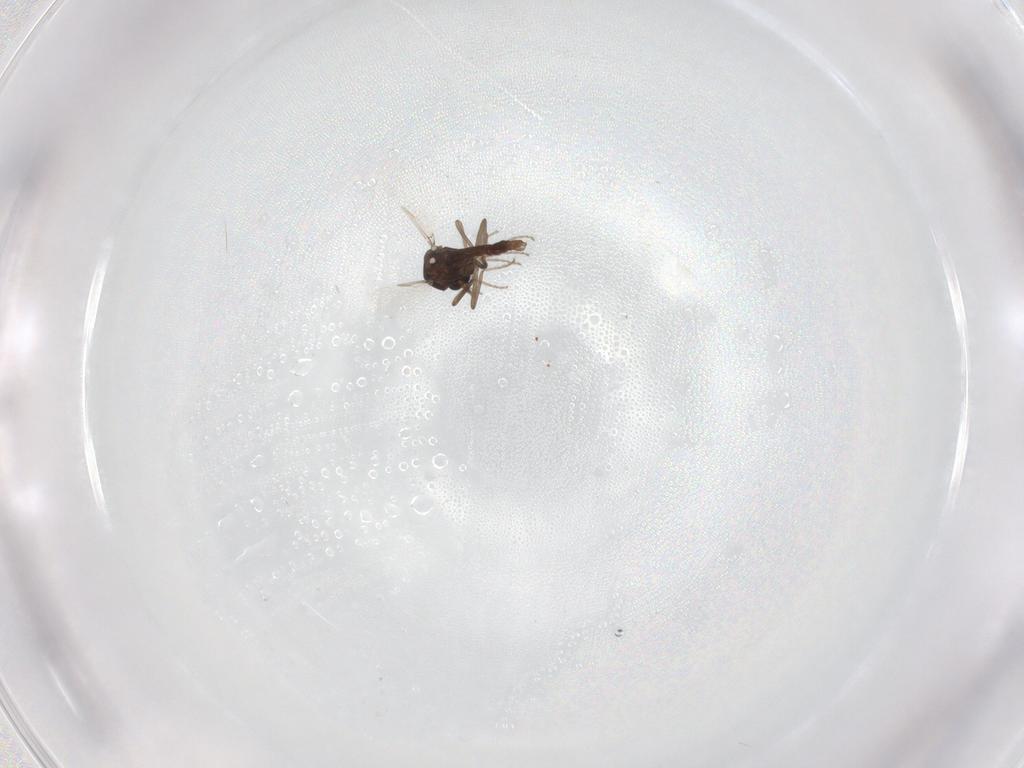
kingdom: Animalia
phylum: Arthropoda
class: Insecta
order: Diptera
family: Ceratopogonidae
